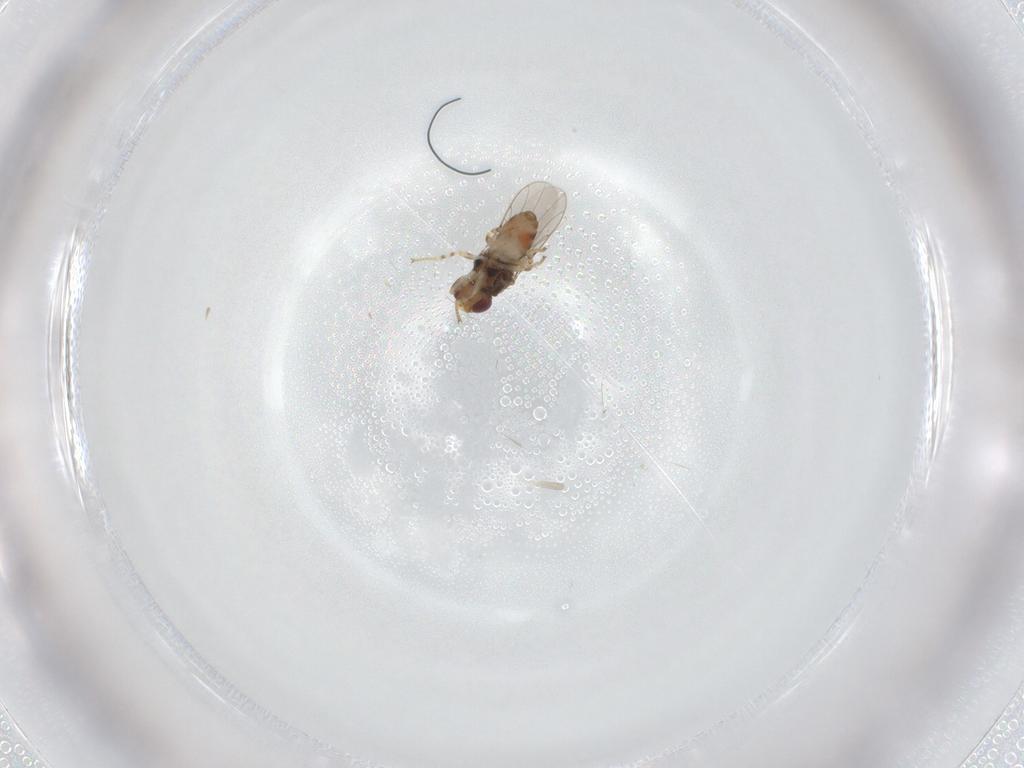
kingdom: Animalia
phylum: Arthropoda
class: Insecta
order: Diptera
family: Chloropidae
